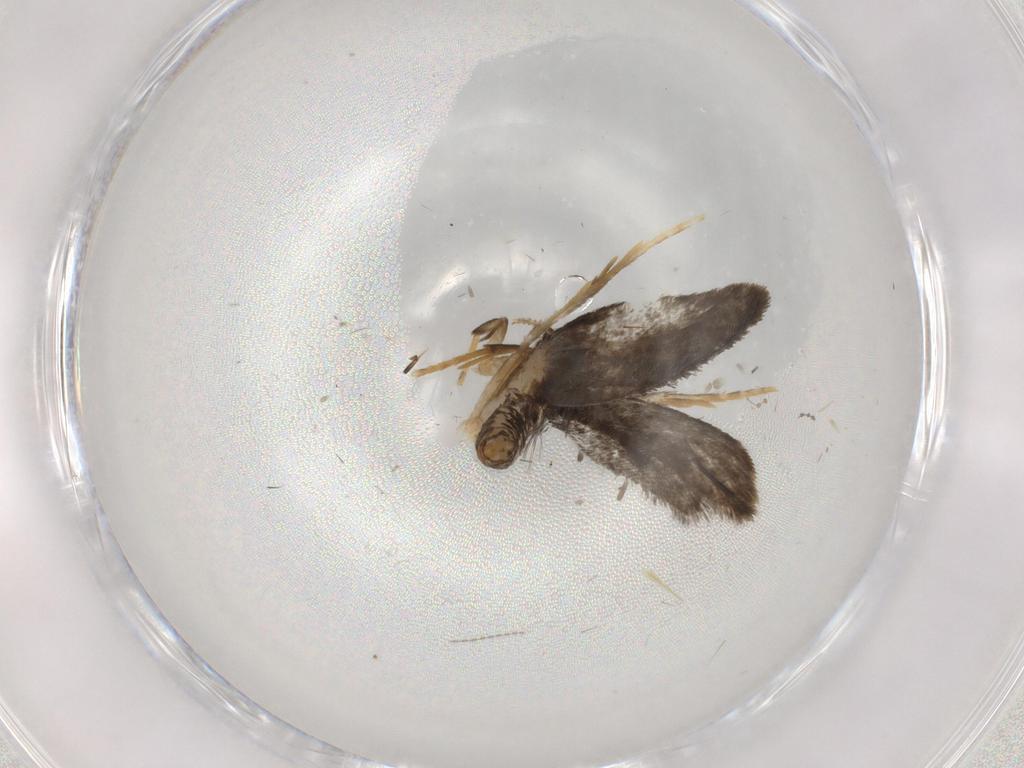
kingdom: Animalia
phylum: Arthropoda
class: Insecta
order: Lepidoptera
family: Psychidae
